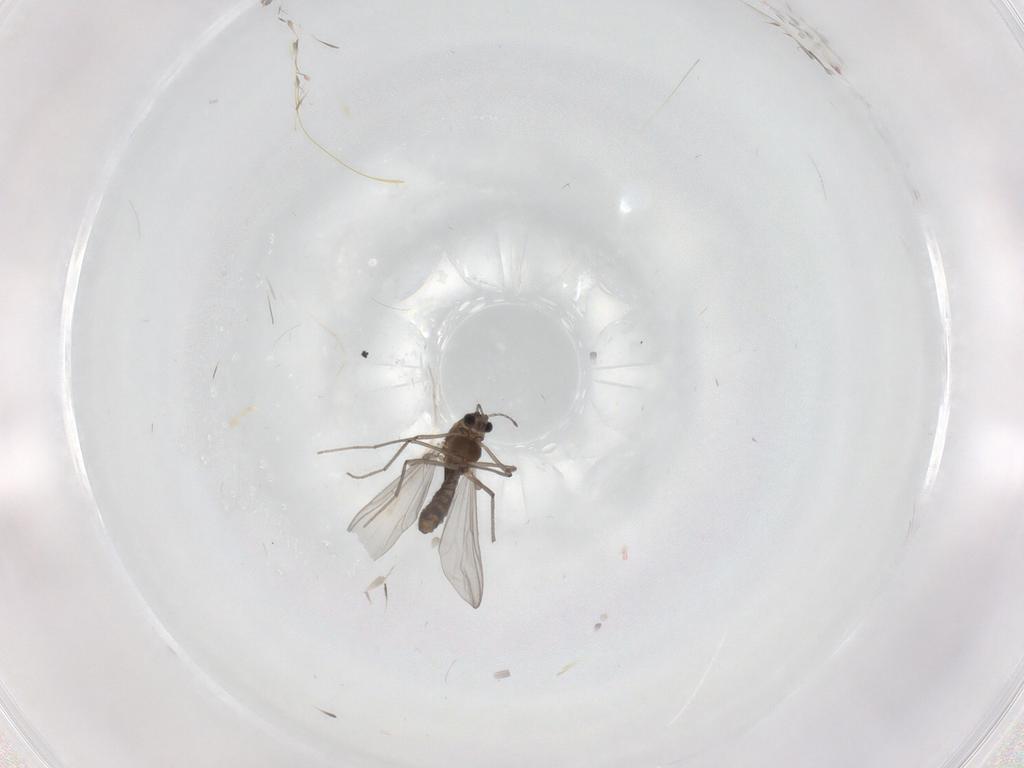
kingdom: Animalia
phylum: Arthropoda
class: Insecta
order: Diptera
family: Chironomidae
